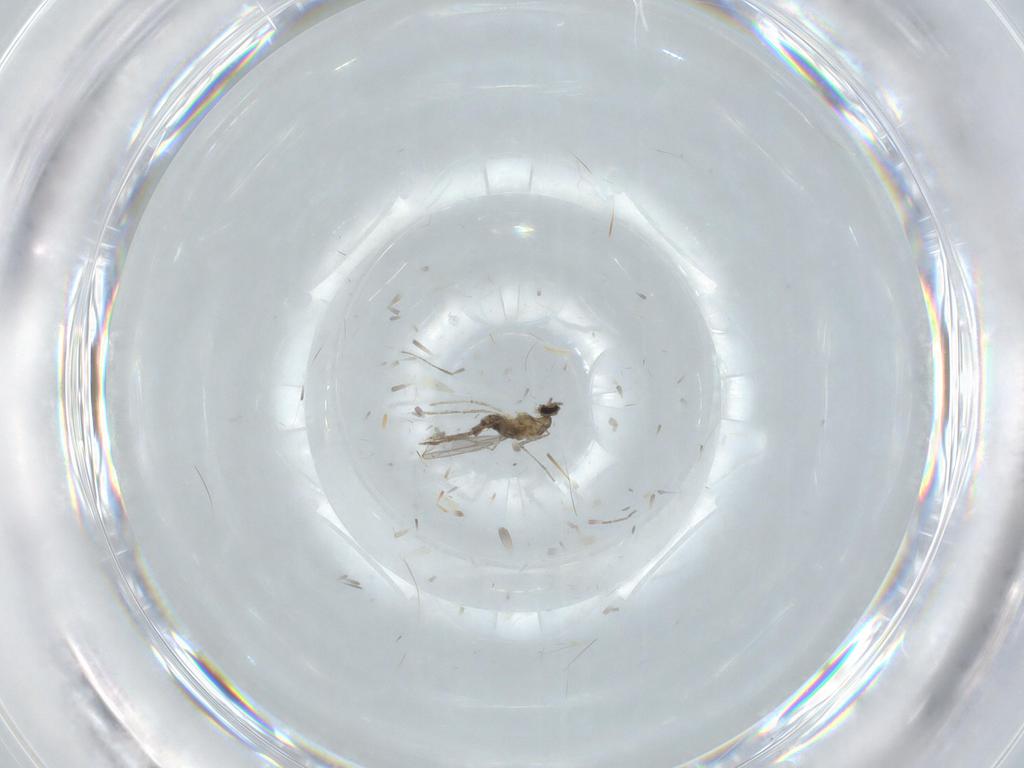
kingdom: Animalia
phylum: Arthropoda
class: Insecta
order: Diptera
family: Cecidomyiidae
